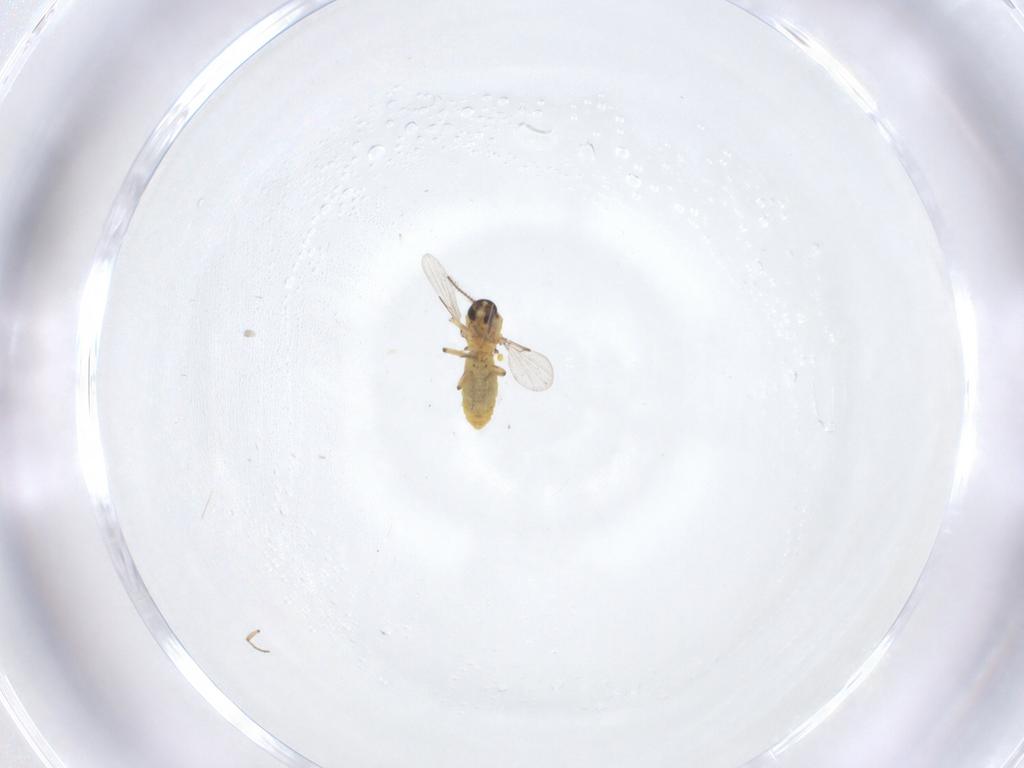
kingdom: Animalia
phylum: Arthropoda
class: Insecta
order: Diptera
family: Ceratopogonidae
